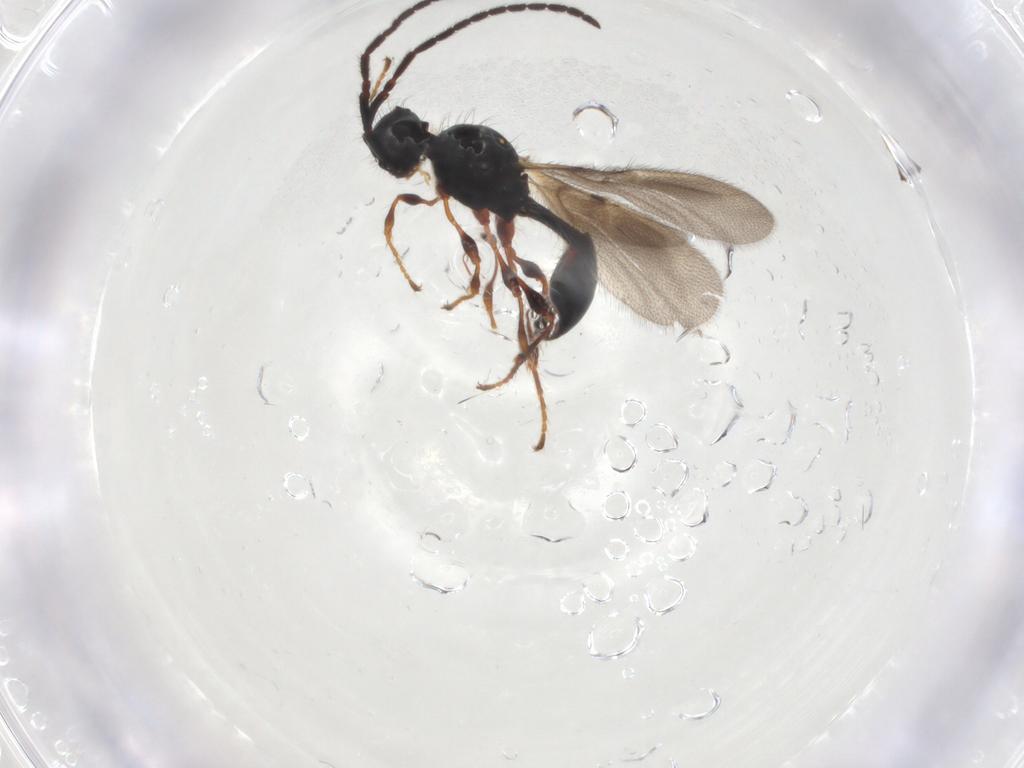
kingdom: Animalia
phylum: Arthropoda
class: Insecta
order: Hymenoptera
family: Diapriidae
